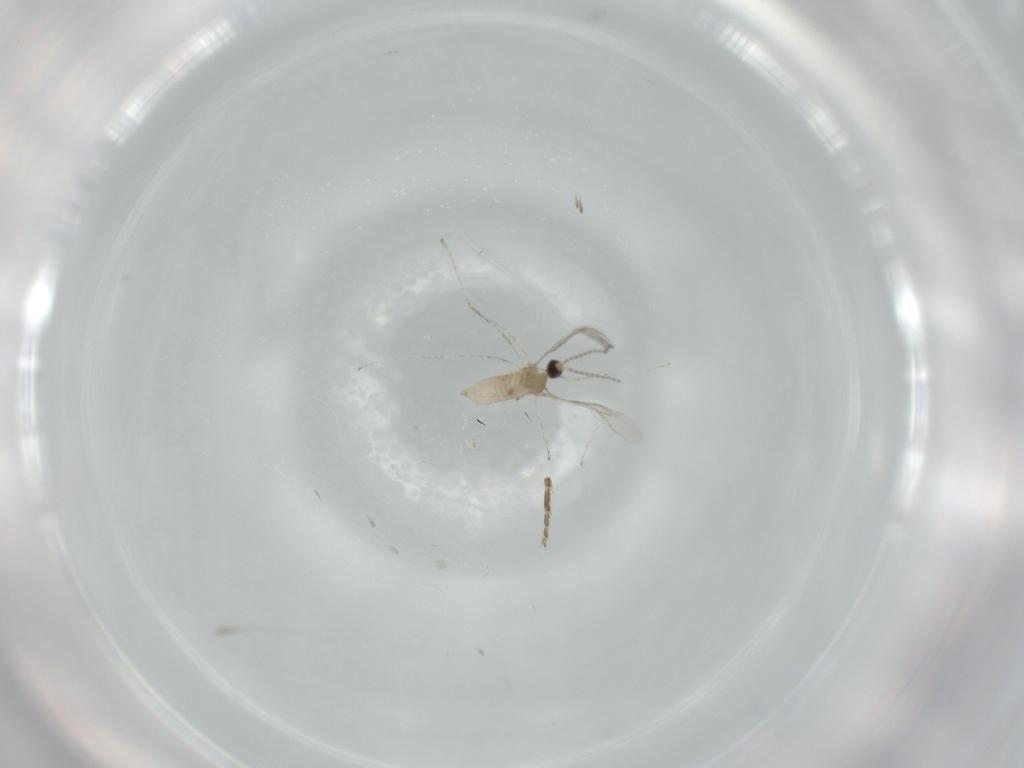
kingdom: Animalia
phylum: Arthropoda
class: Insecta
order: Diptera
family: Cecidomyiidae
